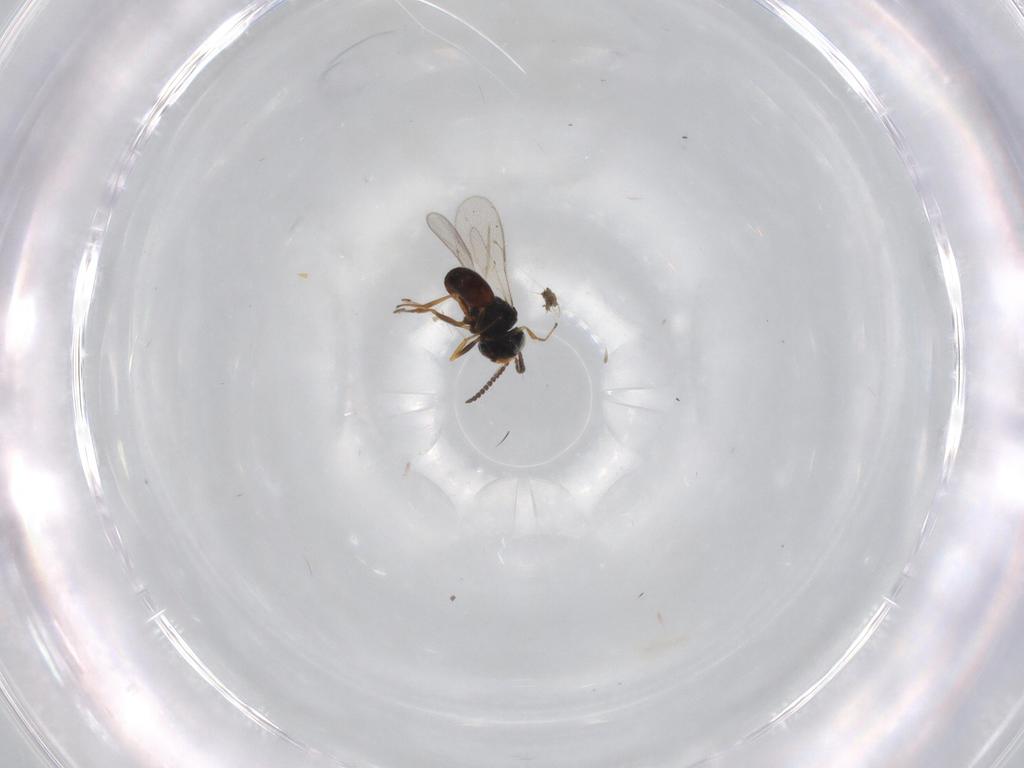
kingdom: Animalia
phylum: Arthropoda
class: Insecta
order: Hymenoptera
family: Scelionidae
